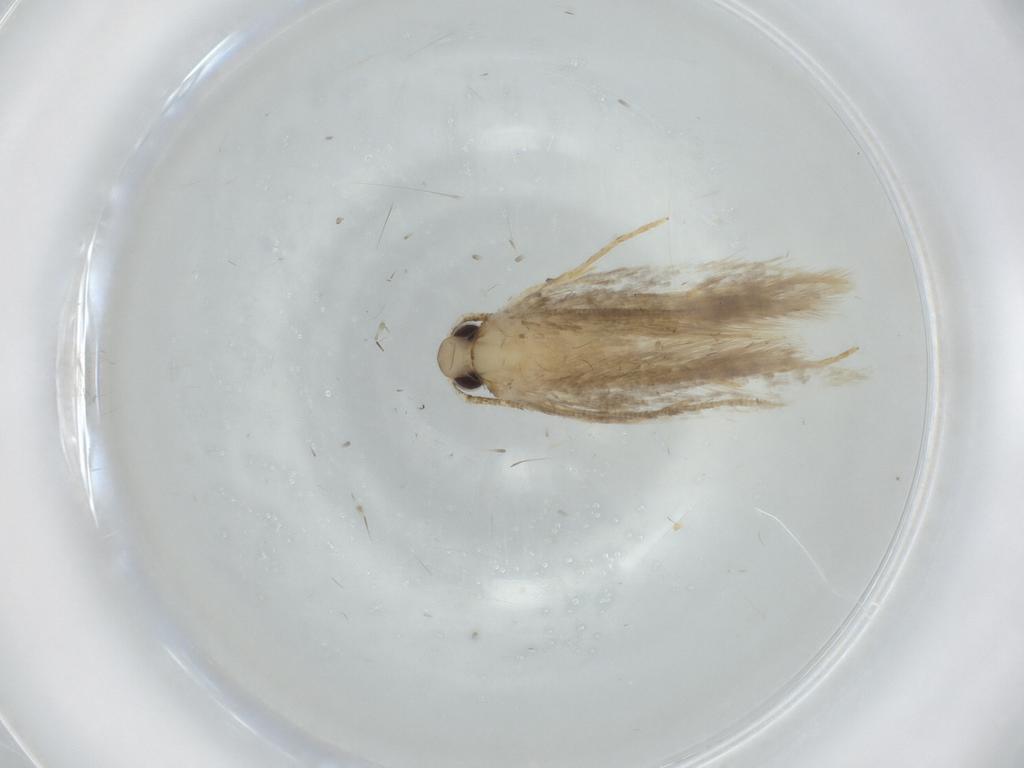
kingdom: Animalia
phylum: Arthropoda
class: Insecta
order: Lepidoptera
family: Gelechiidae
